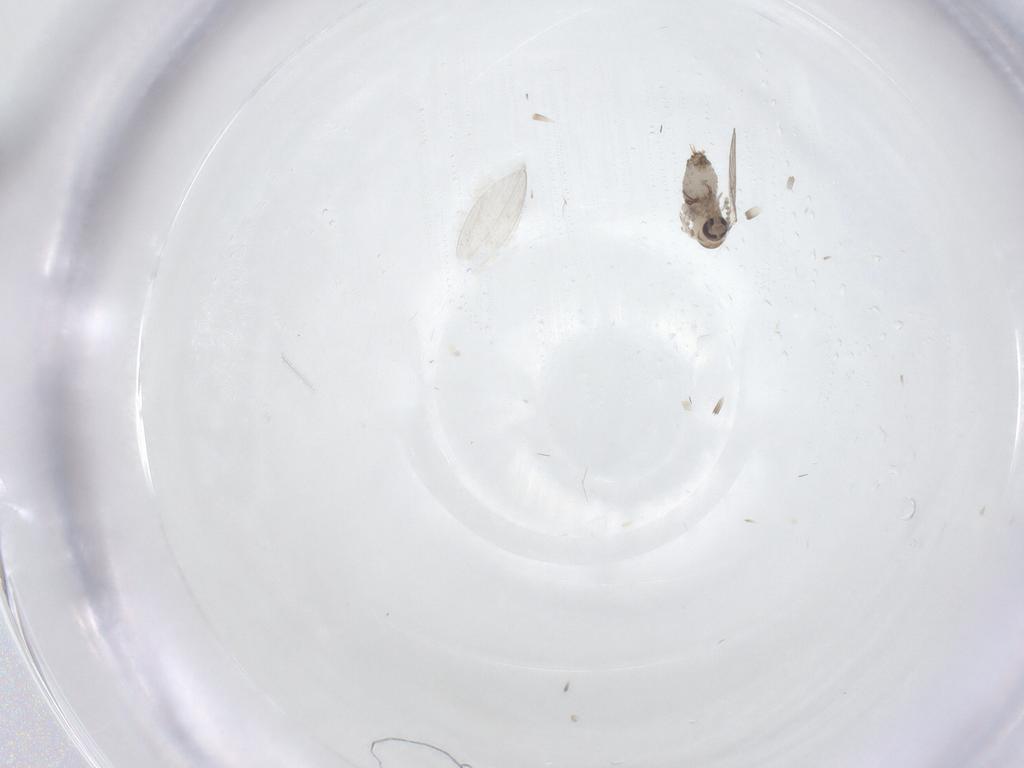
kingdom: Animalia
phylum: Arthropoda
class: Insecta
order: Diptera
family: Psychodidae
